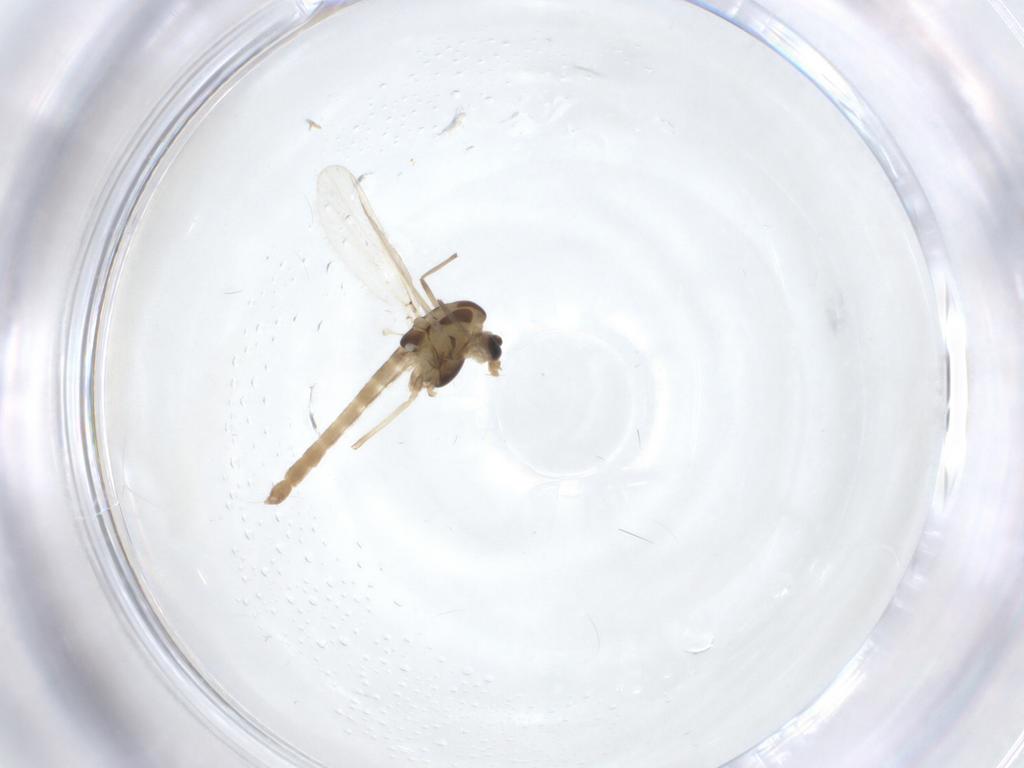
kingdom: Animalia
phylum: Arthropoda
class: Insecta
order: Diptera
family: Chironomidae
